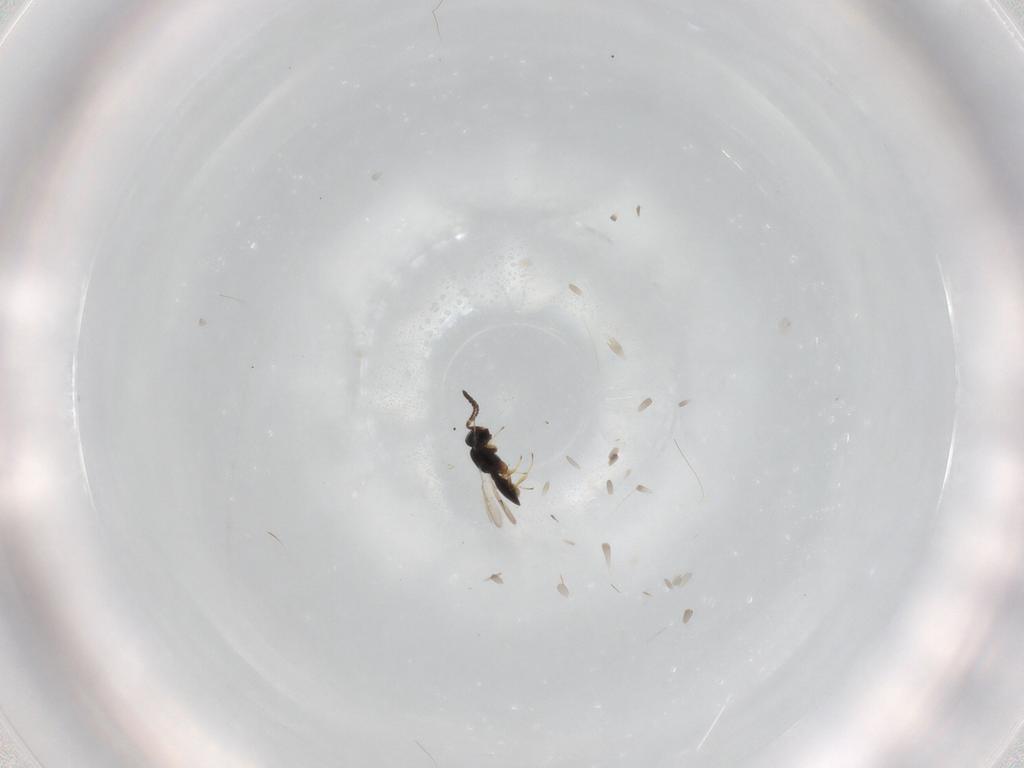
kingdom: Animalia
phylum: Arthropoda
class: Insecta
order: Hymenoptera
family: Scelionidae
